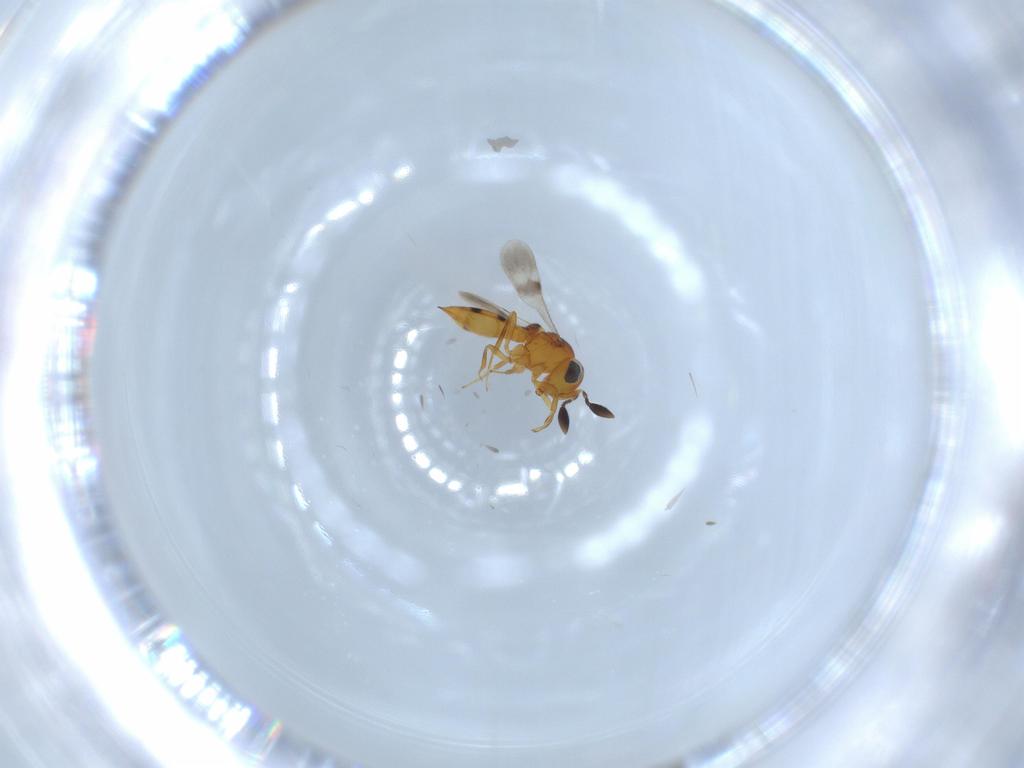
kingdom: Animalia
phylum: Arthropoda
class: Insecta
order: Hymenoptera
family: Scelionidae
